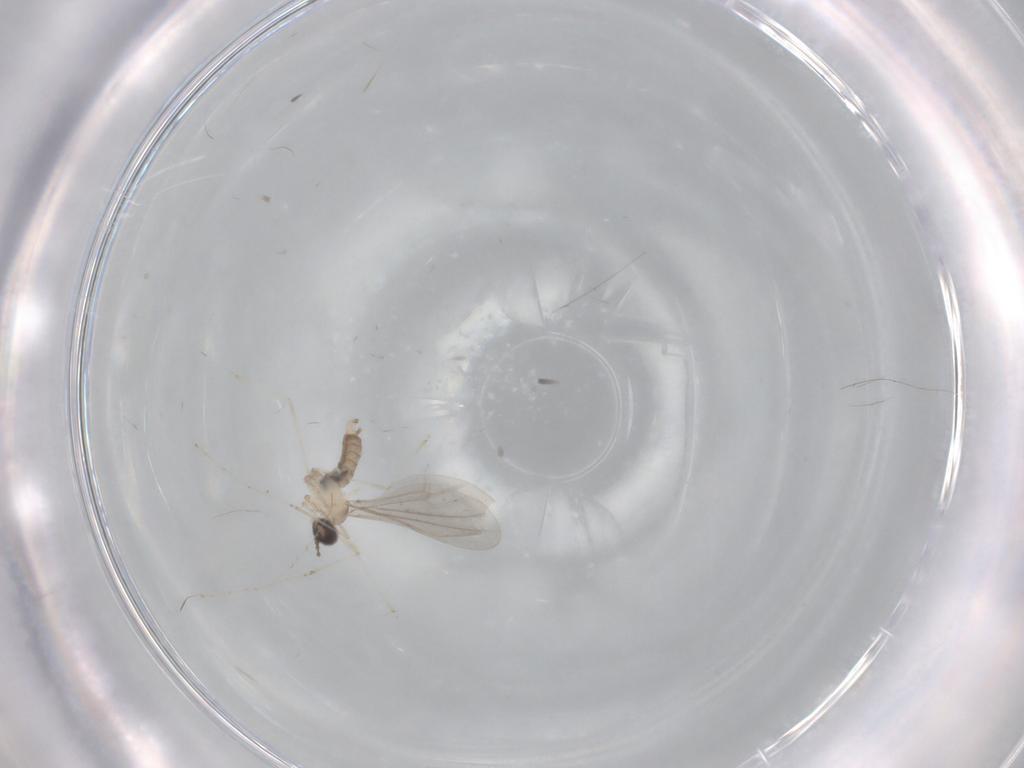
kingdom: Animalia
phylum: Arthropoda
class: Insecta
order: Diptera
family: Cecidomyiidae
